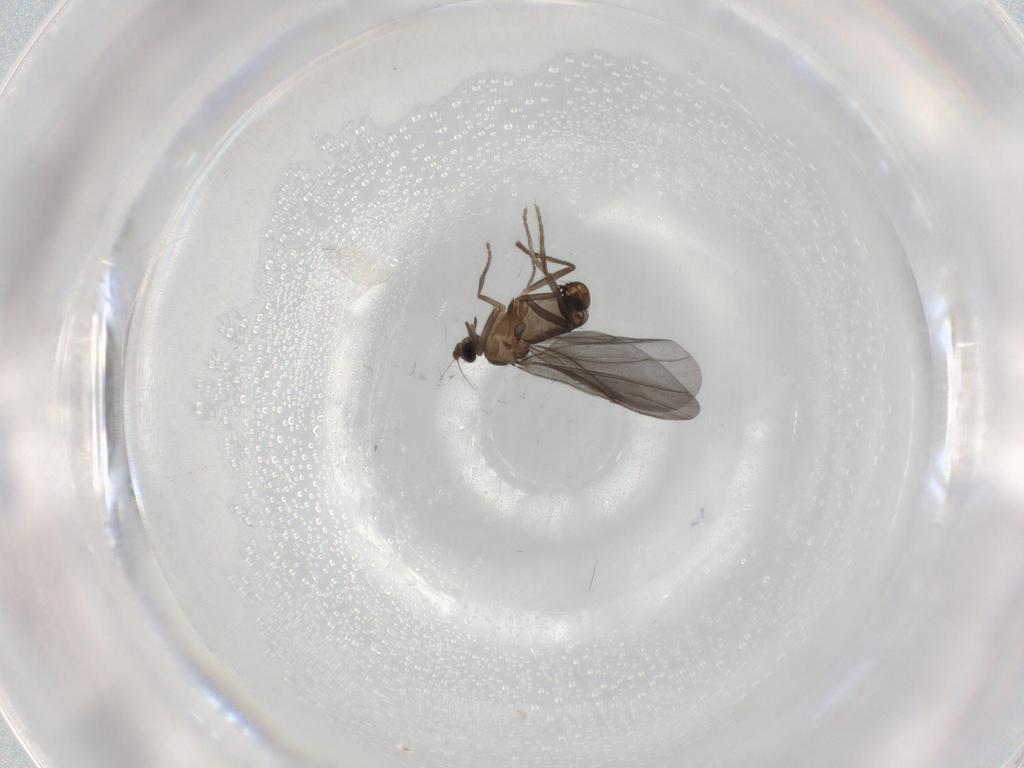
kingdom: Animalia
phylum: Arthropoda
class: Insecta
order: Diptera
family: Phoridae
